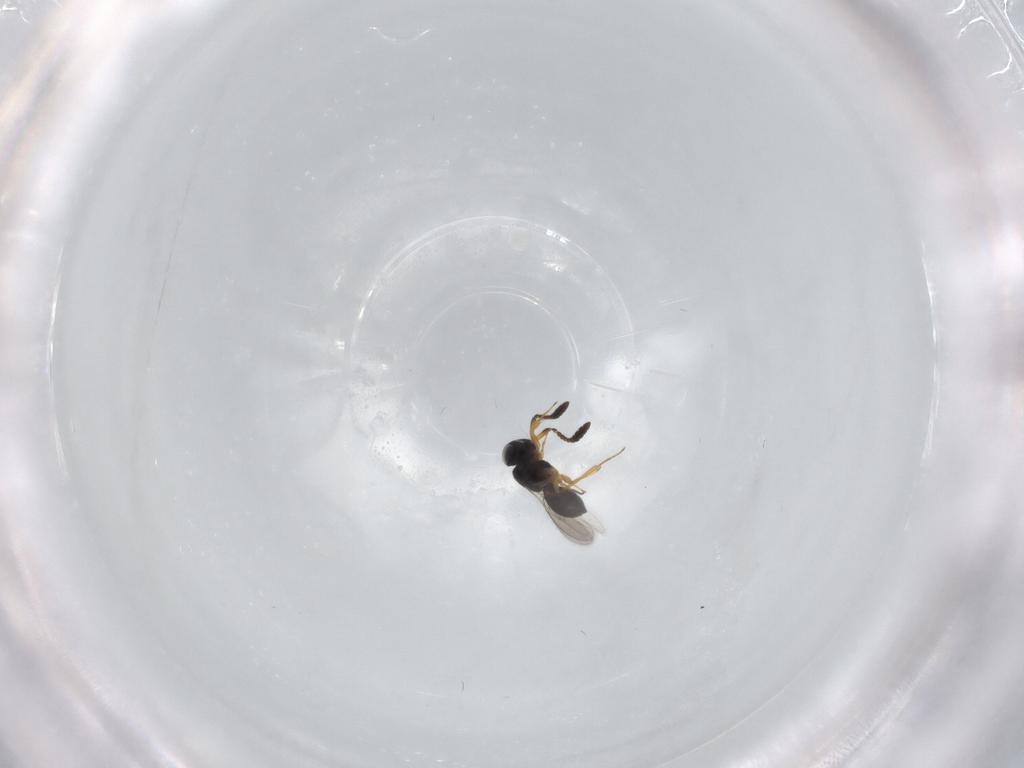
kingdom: Animalia
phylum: Arthropoda
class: Insecta
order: Hymenoptera
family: Scelionidae
